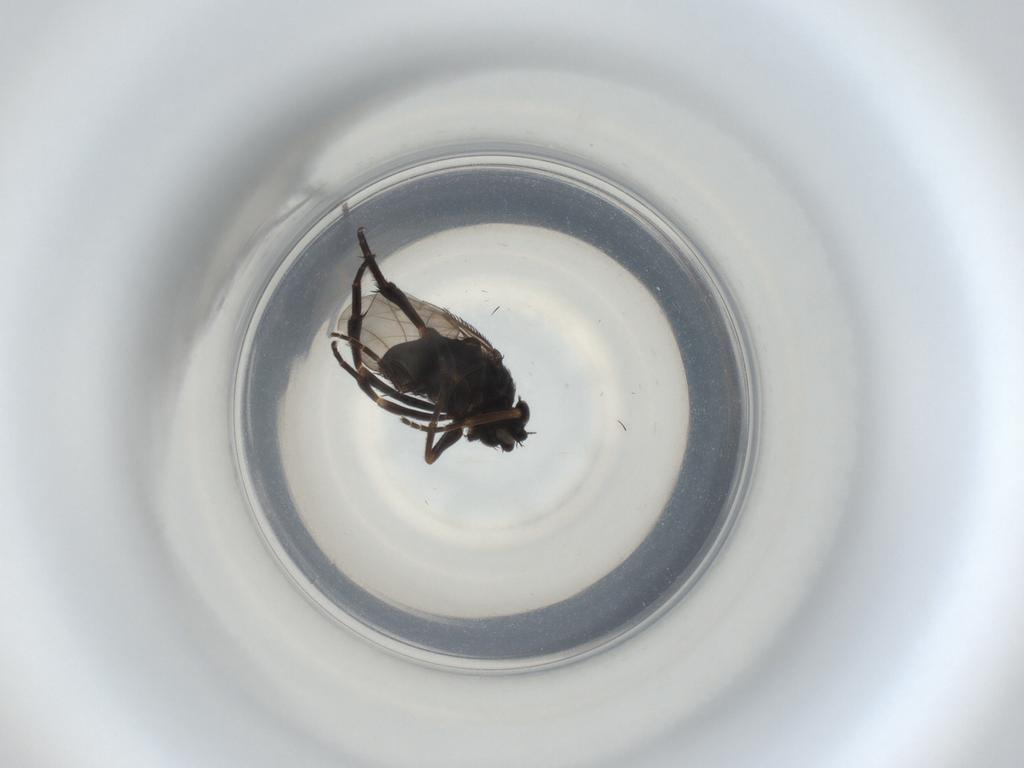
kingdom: Animalia
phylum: Arthropoda
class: Insecta
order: Diptera
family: Phoridae
